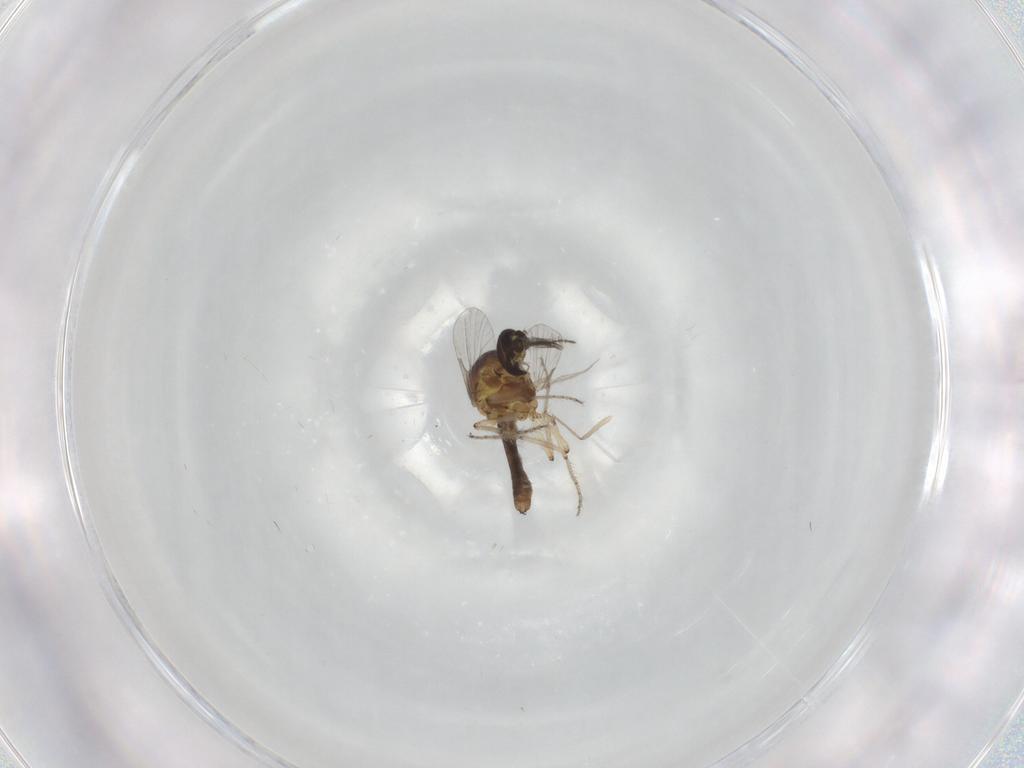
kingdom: Animalia
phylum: Arthropoda
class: Insecta
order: Diptera
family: Ceratopogonidae
